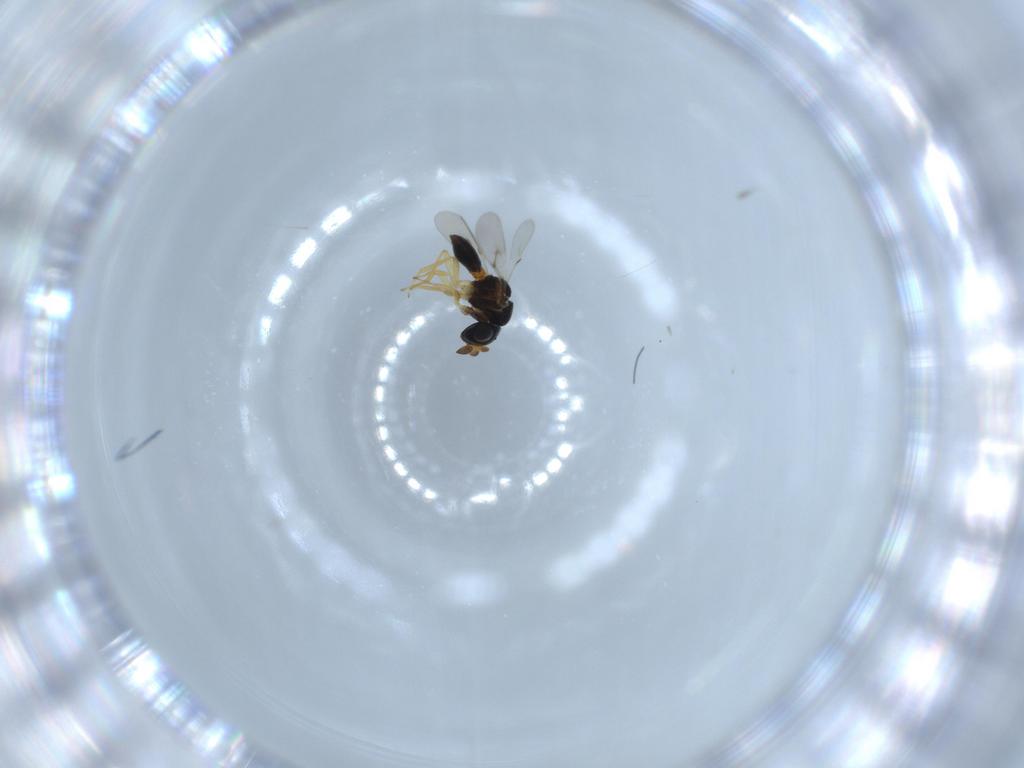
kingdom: Animalia
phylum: Arthropoda
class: Insecta
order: Hymenoptera
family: Scelionidae
